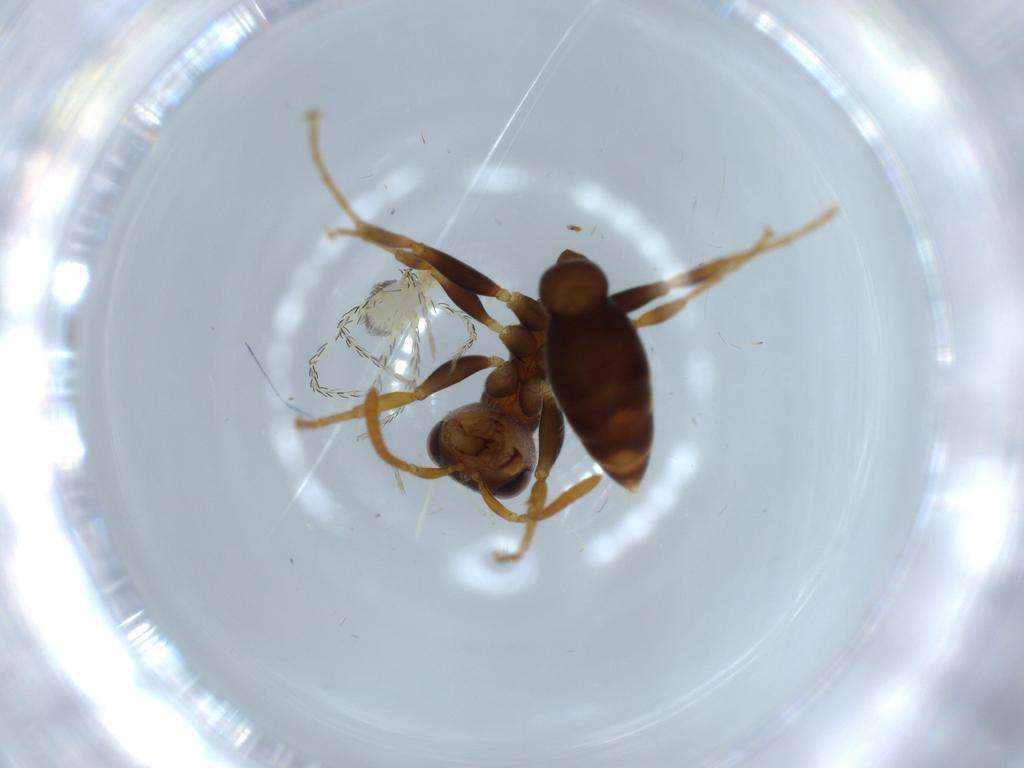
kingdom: Animalia
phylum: Arthropoda
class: Insecta
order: Hymenoptera
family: Formicidae
